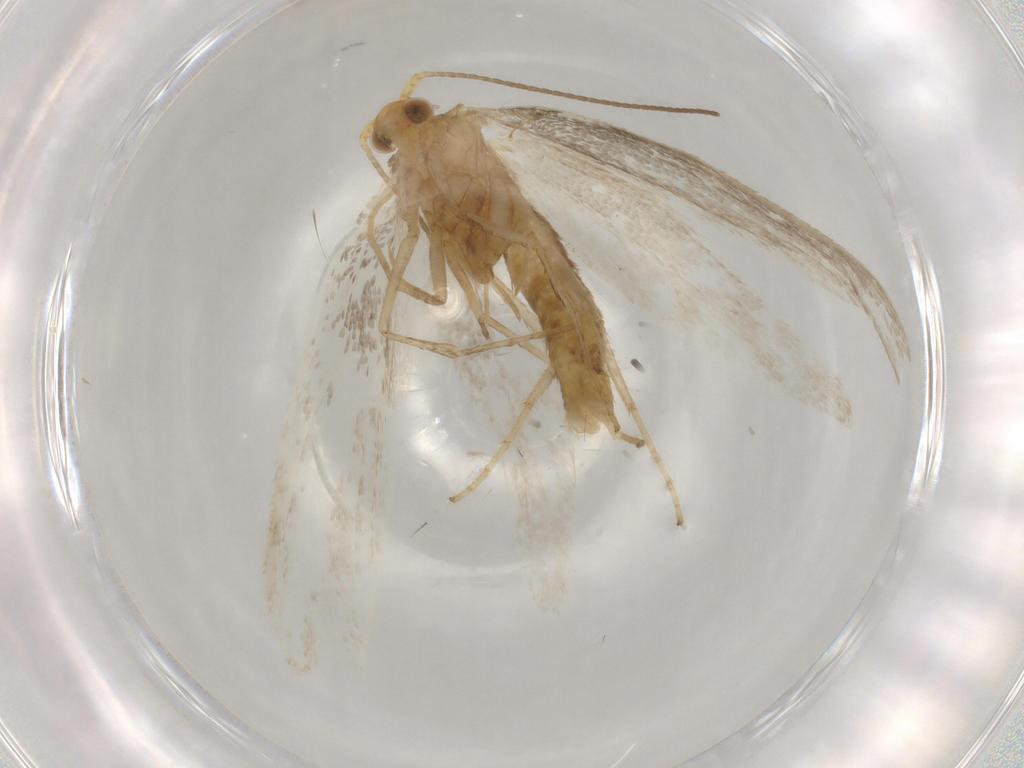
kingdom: Animalia
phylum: Arthropoda
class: Insecta
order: Lepidoptera
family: Argyresthiidae
